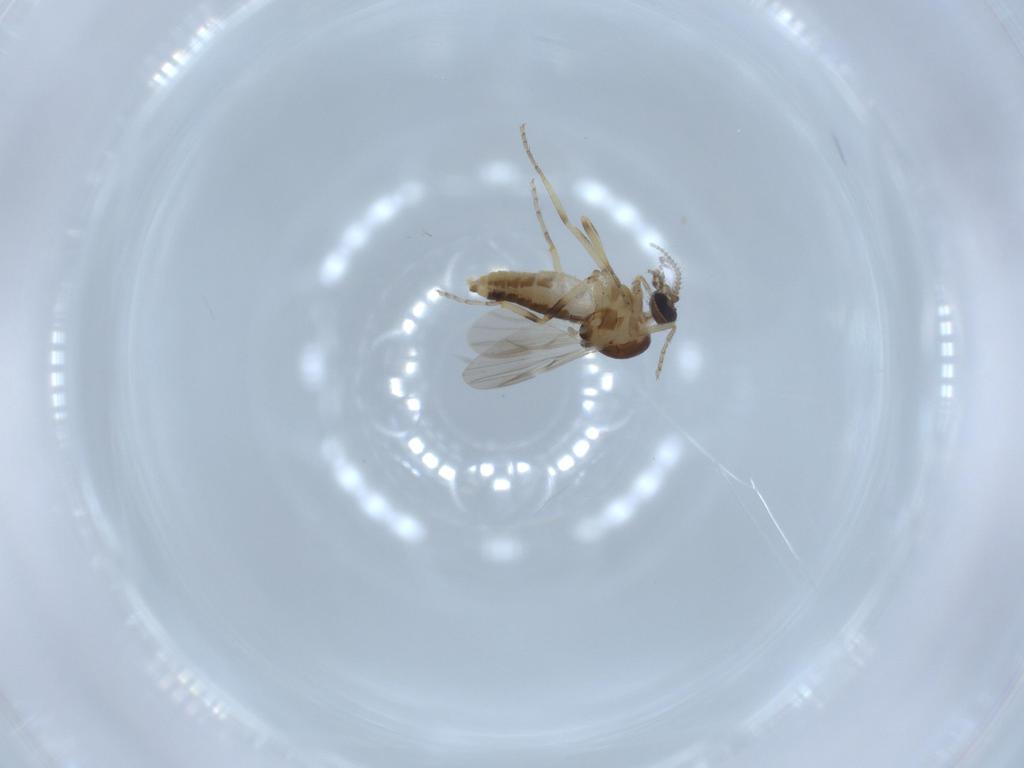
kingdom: Animalia
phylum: Arthropoda
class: Insecta
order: Diptera
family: Ceratopogonidae
